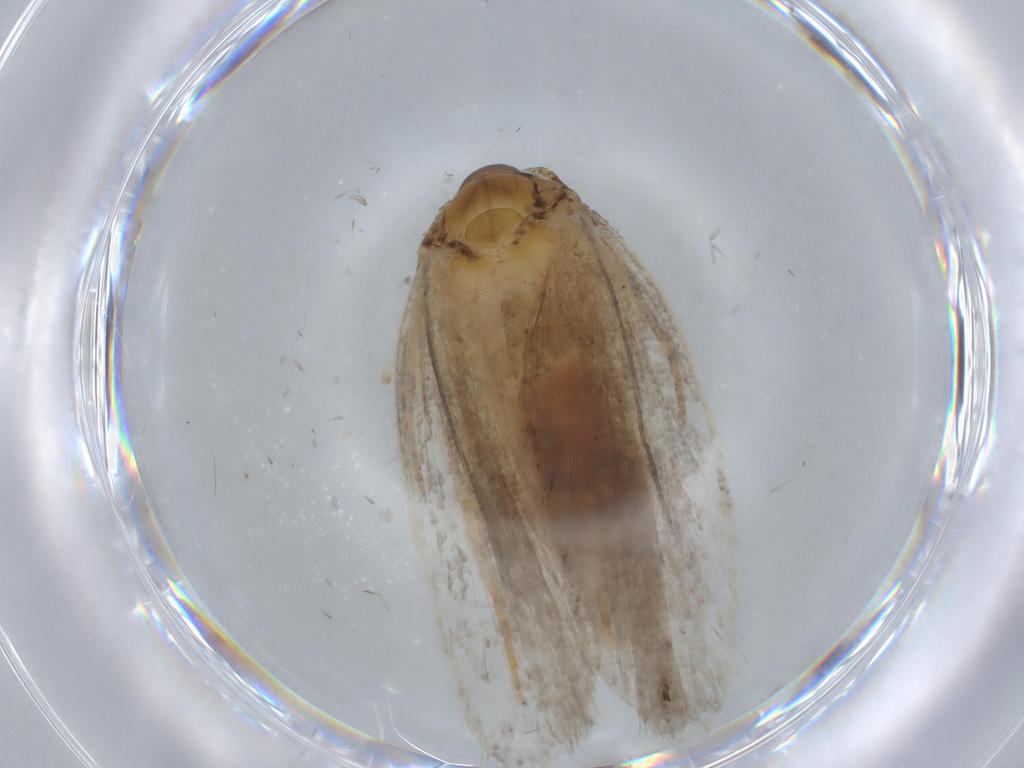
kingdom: Animalia
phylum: Arthropoda
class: Insecta
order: Lepidoptera
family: Gelechiidae
